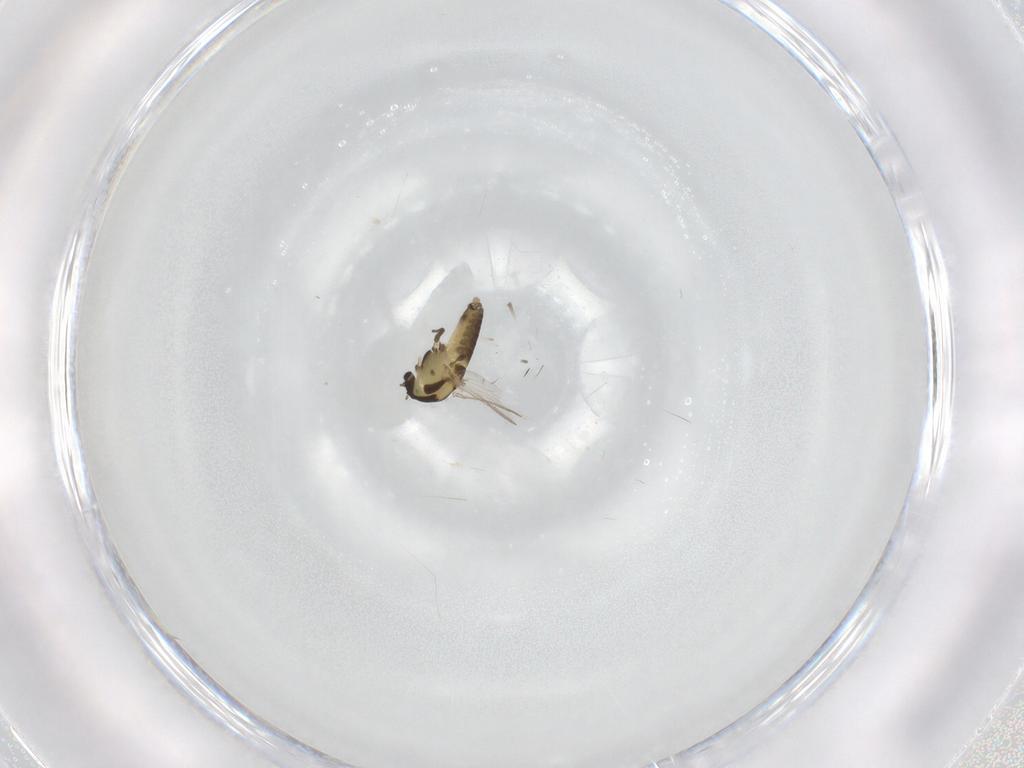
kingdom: Animalia
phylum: Arthropoda
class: Insecta
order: Diptera
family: Chironomidae
